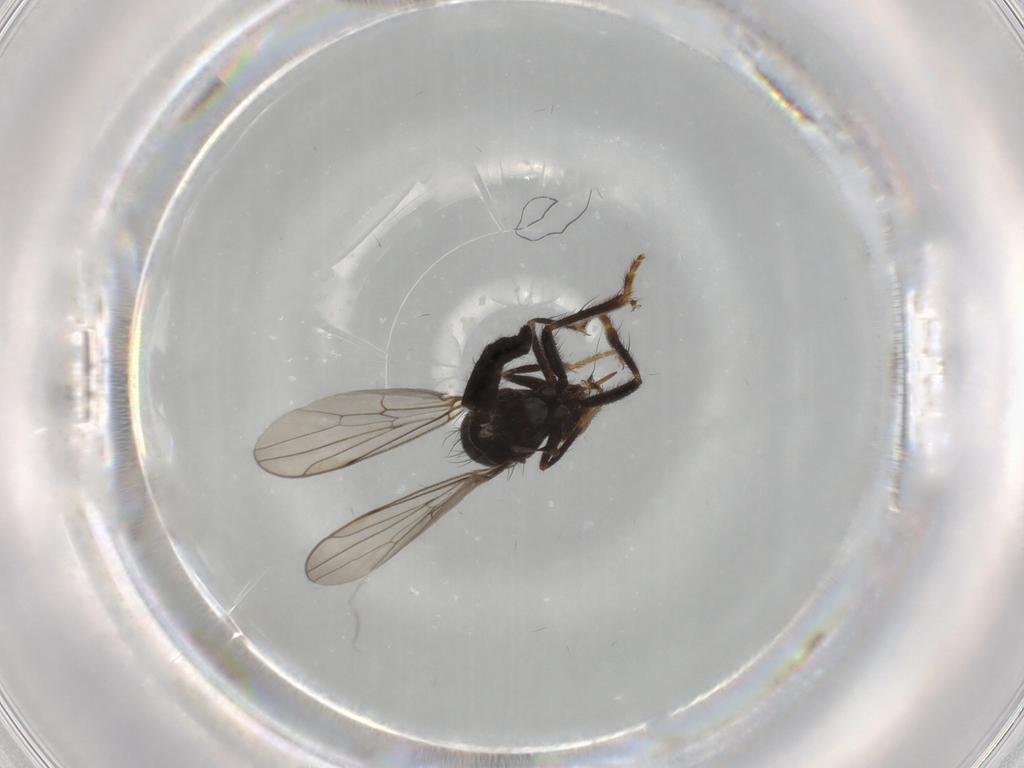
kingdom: Animalia
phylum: Arthropoda
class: Insecta
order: Diptera
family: Hybotidae
